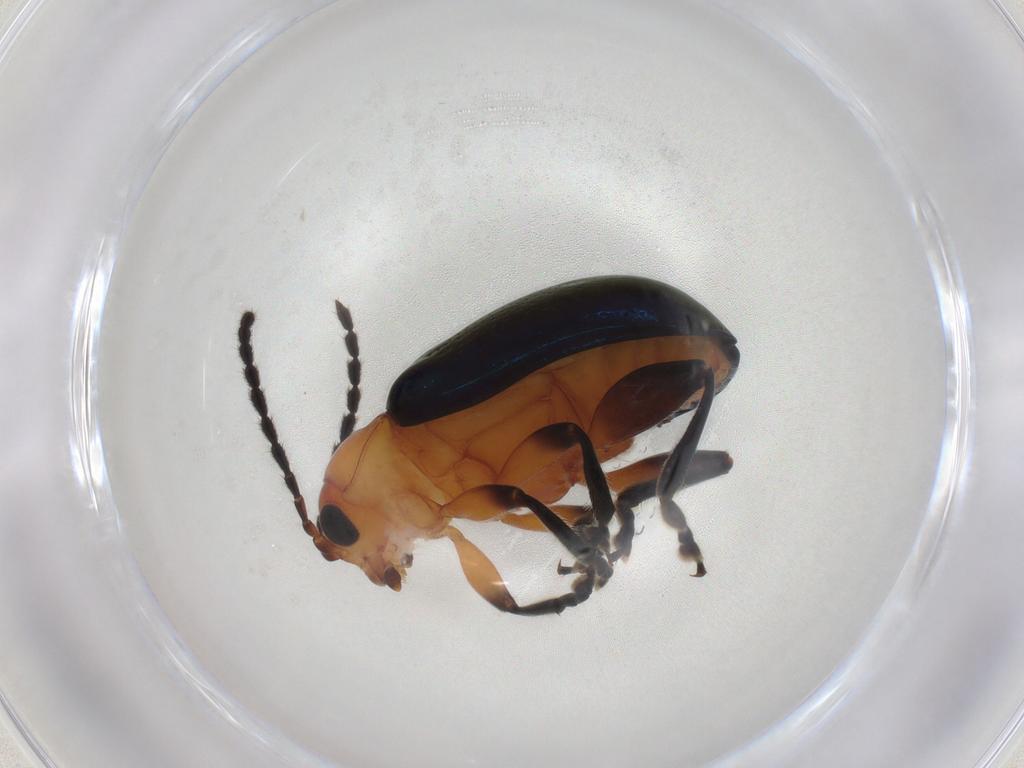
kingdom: Animalia
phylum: Arthropoda
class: Insecta
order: Coleoptera
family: Chrysomelidae
